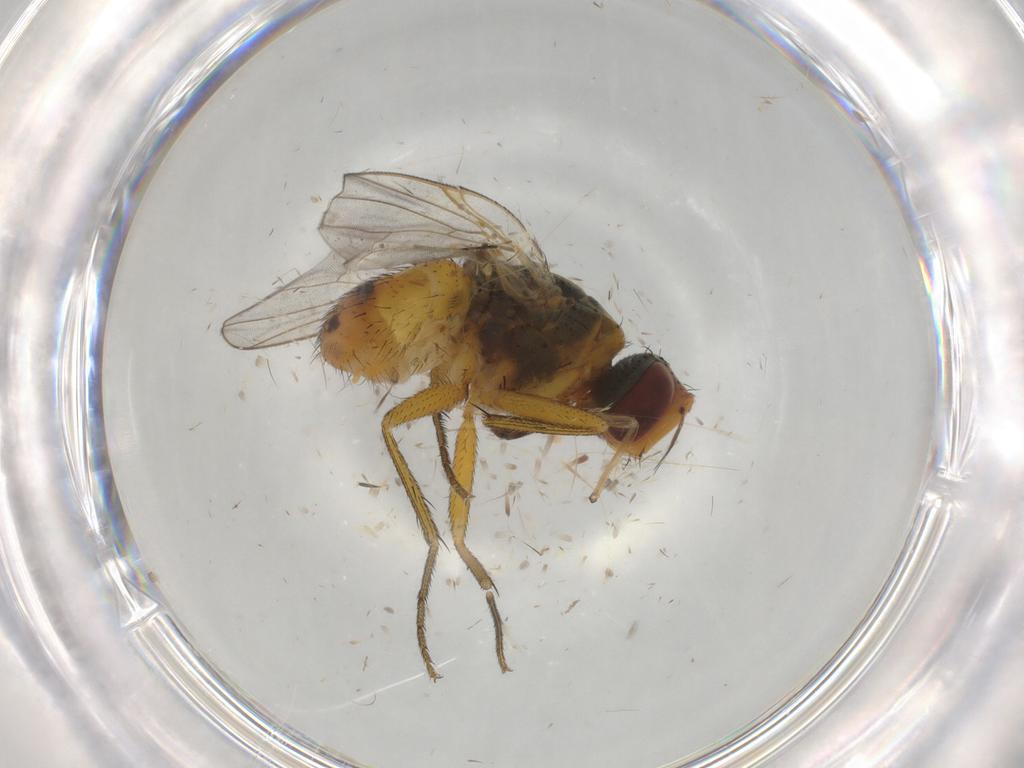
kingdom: Animalia
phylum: Arthropoda
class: Insecta
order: Diptera
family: Muscidae
